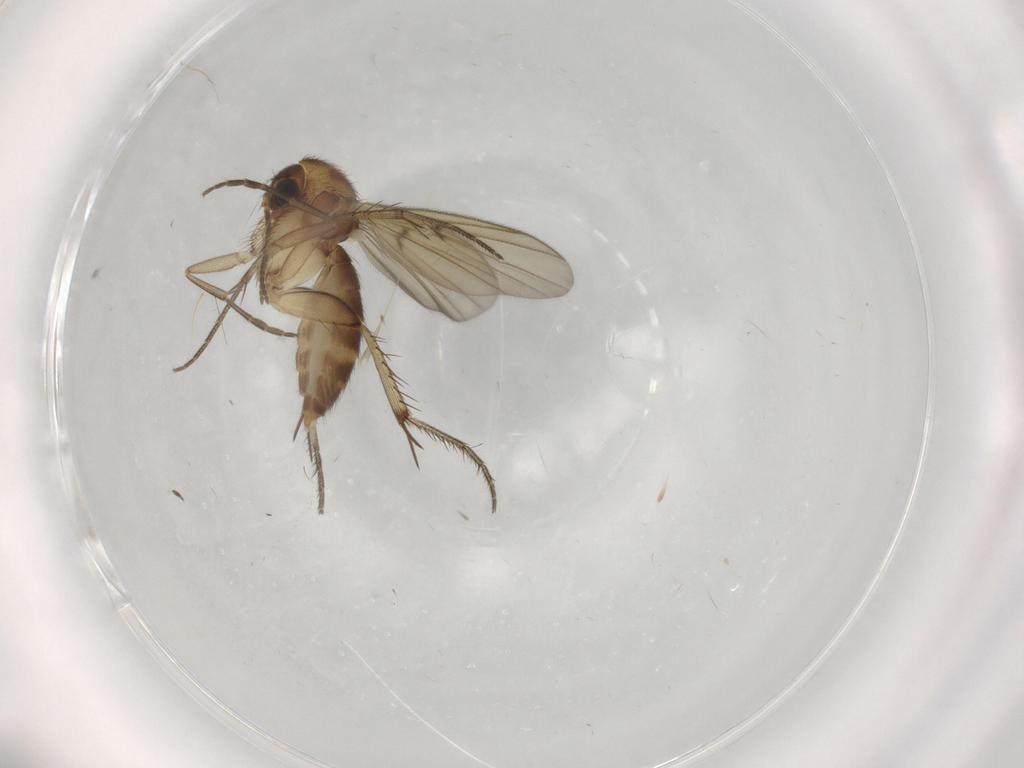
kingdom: Animalia
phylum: Arthropoda
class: Insecta
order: Diptera
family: Mycetophilidae
